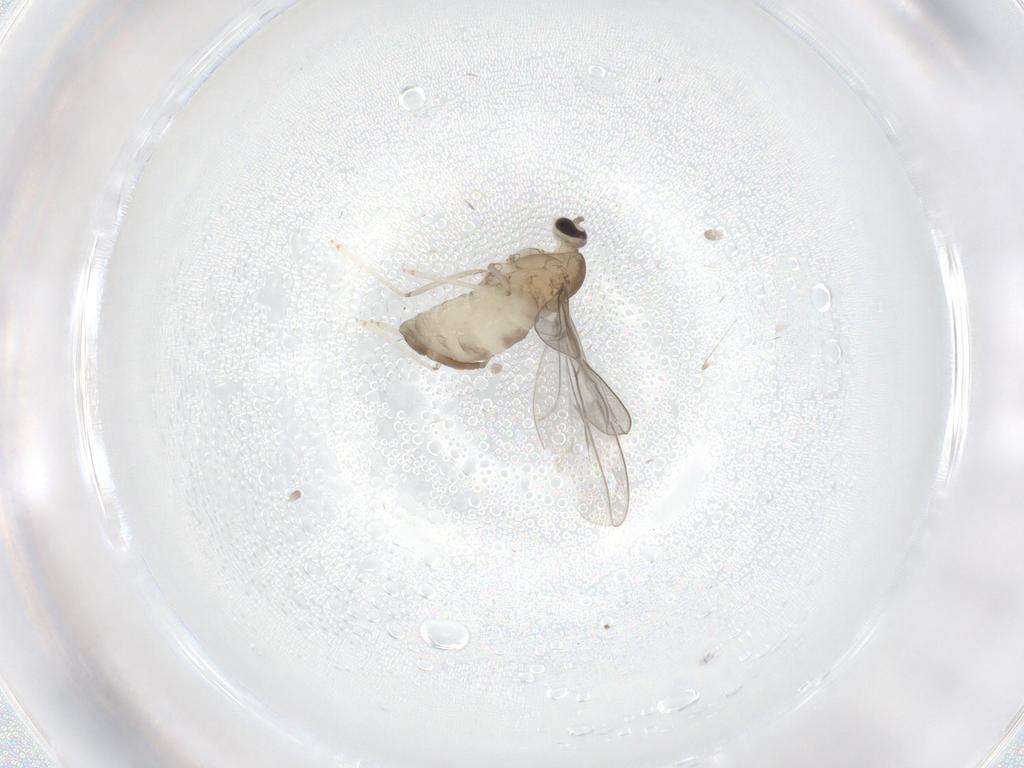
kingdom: Animalia
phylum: Arthropoda
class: Insecta
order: Diptera
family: Cecidomyiidae
